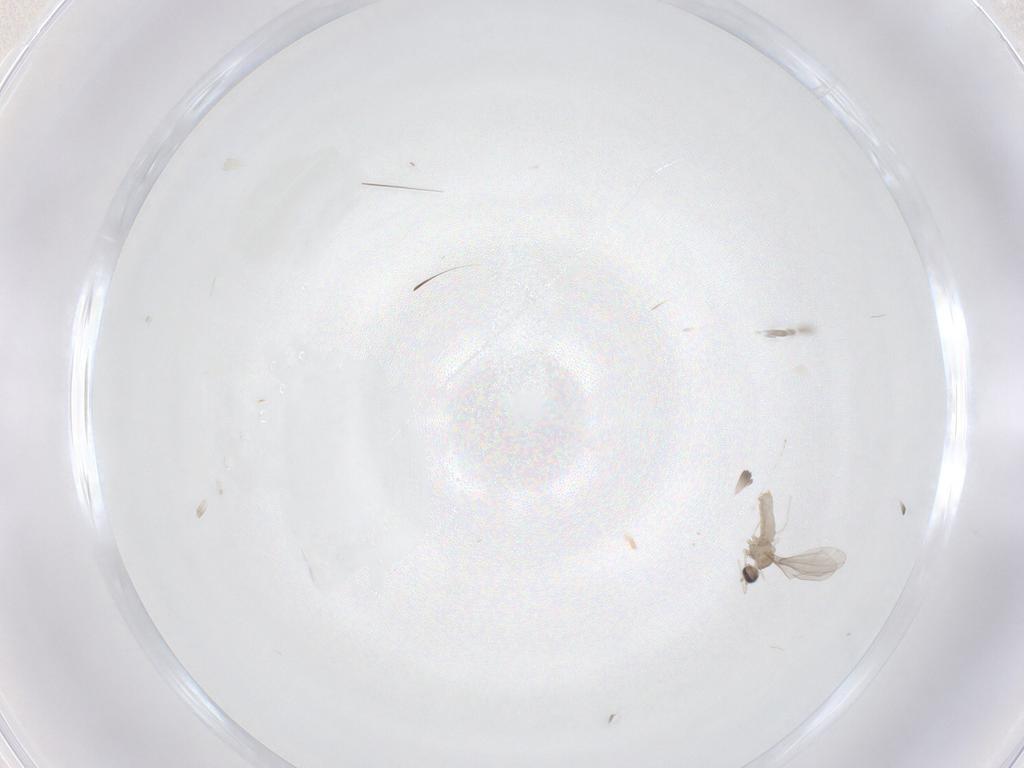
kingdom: Animalia
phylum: Arthropoda
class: Insecta
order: Diptera
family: Cecidomyiidae
